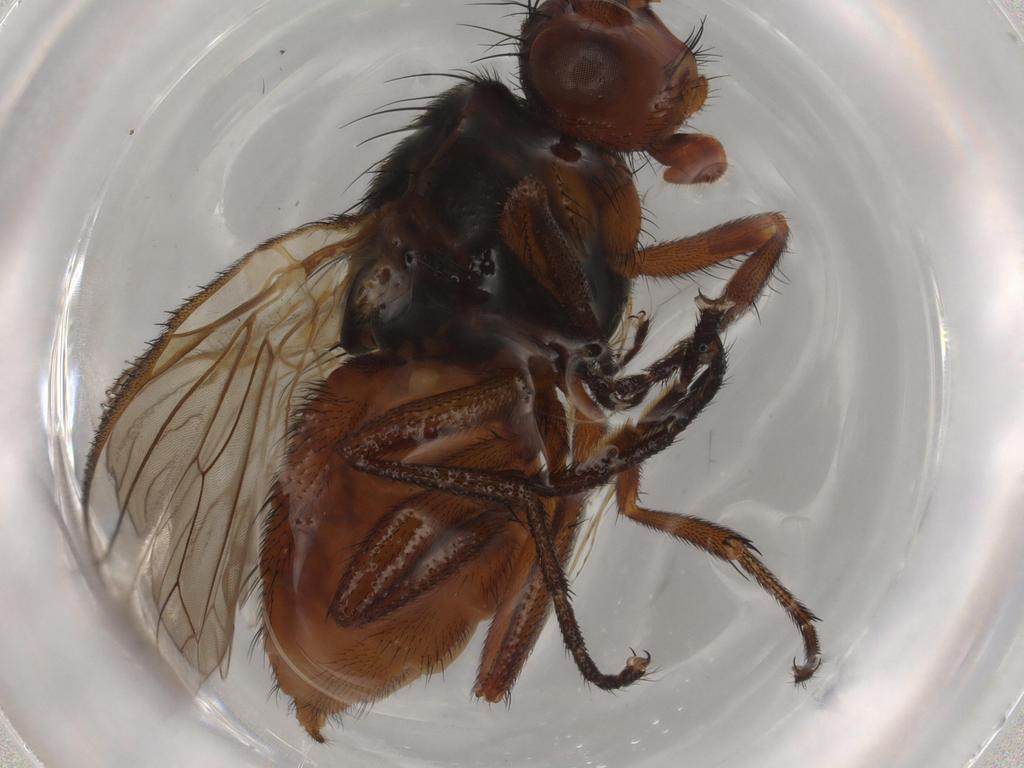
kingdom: Animalia
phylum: Arthropoda
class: Insecta
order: Diptera
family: Heleomyzidae
